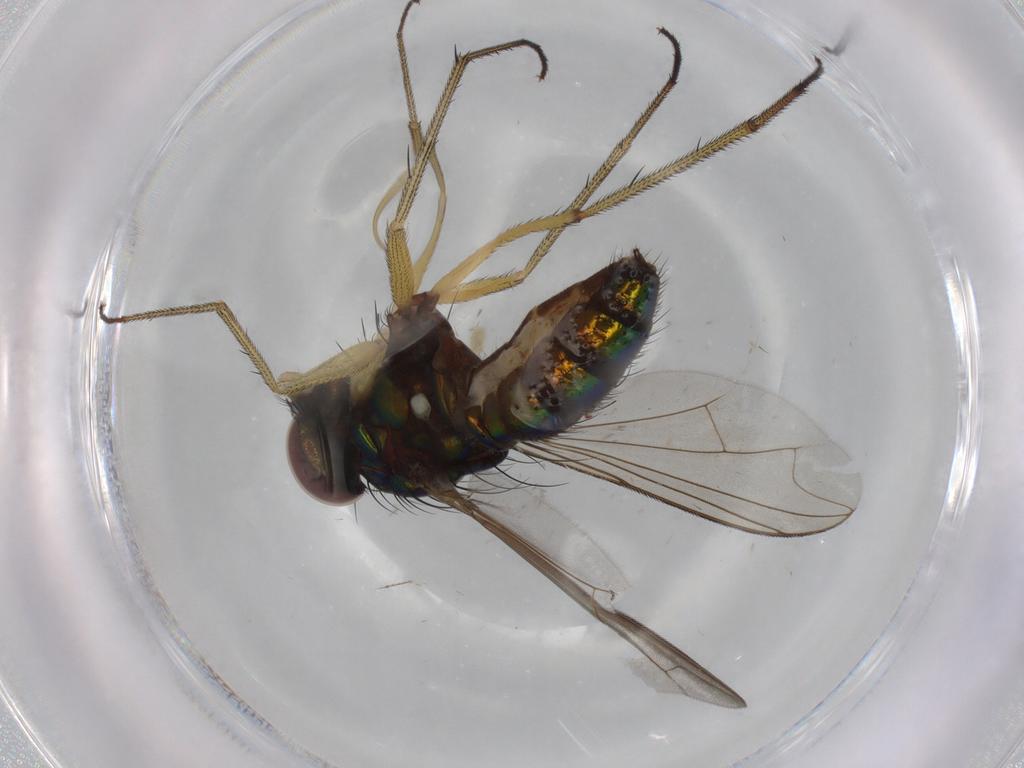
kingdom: Animalia
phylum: Arthropoda
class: Insecta
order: Diptera
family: Dolichopodidae
